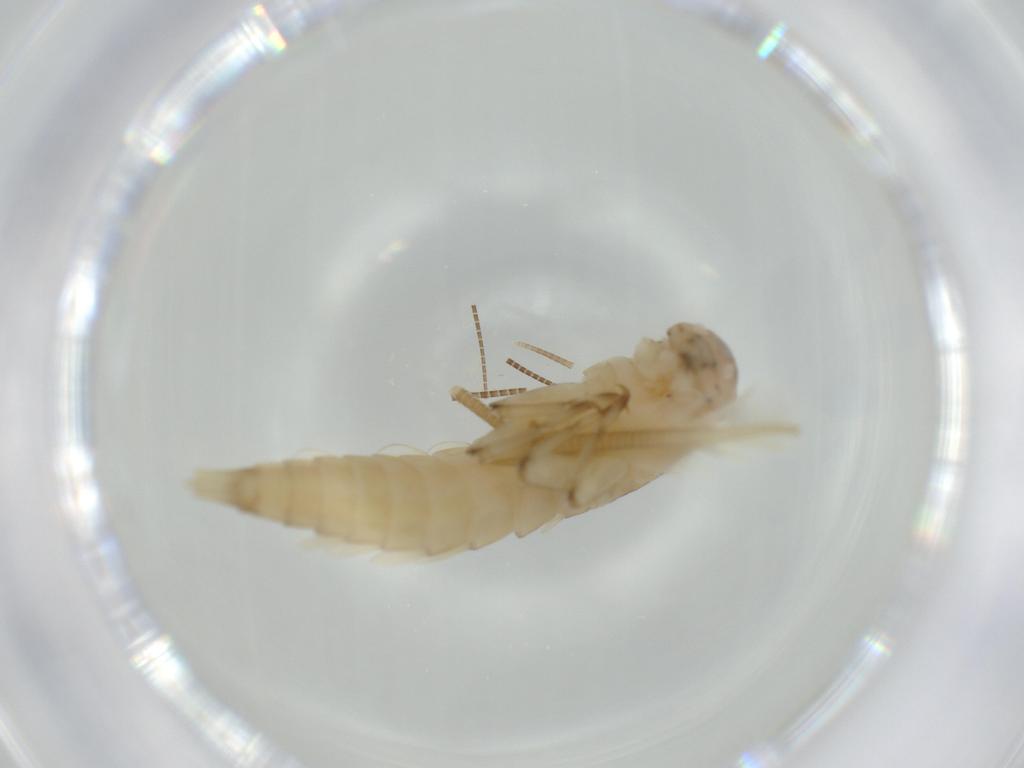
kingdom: Animalia
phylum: Arthropoda
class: Insecta
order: Ephemeroptera
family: Baetidae
